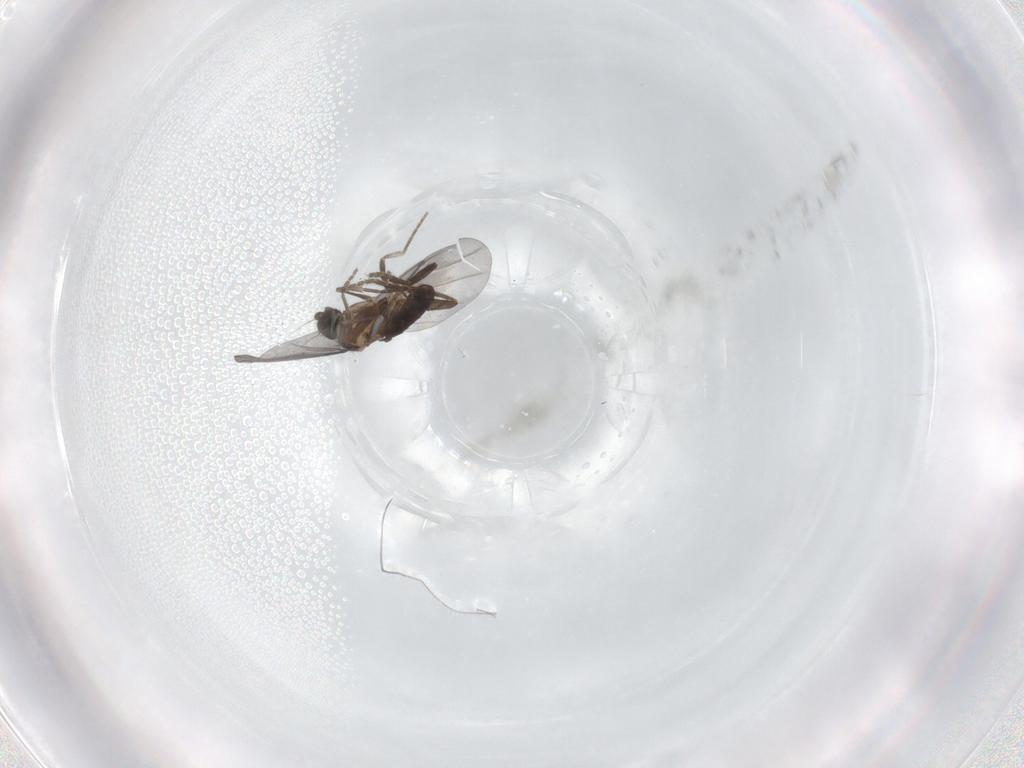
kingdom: Animalia
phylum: Arthropoda
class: Insecta
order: Diptera
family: Phoridae
